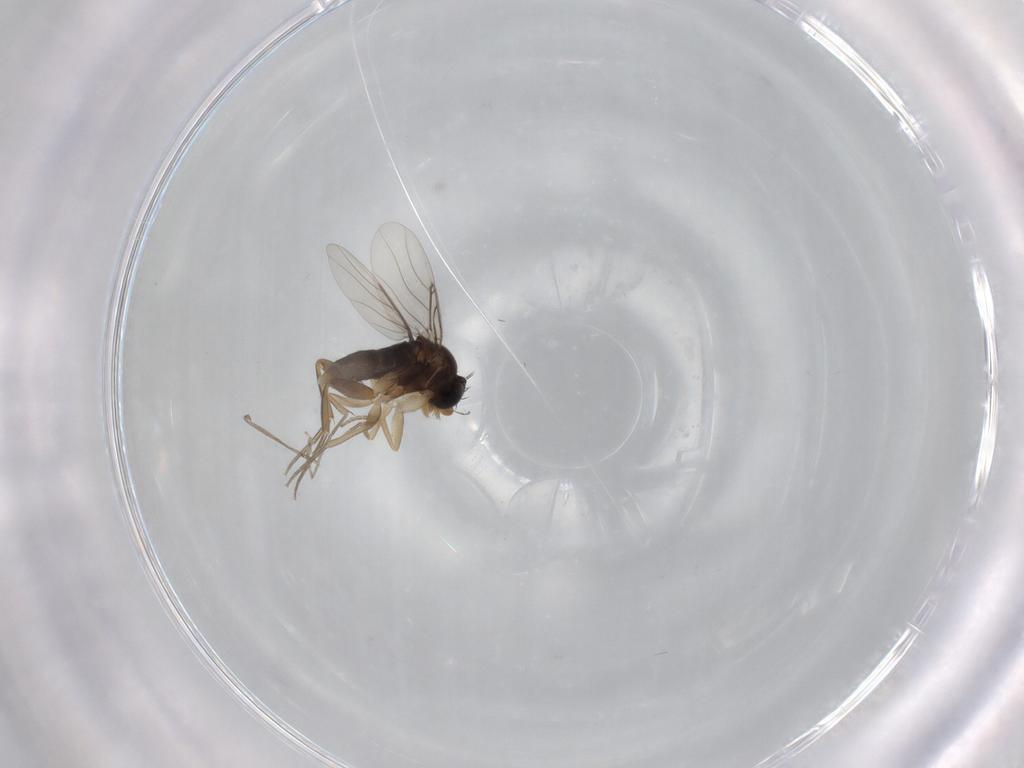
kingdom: Animalia
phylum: Arthropoda
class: Insecta
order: Diptera
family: Phoridae
